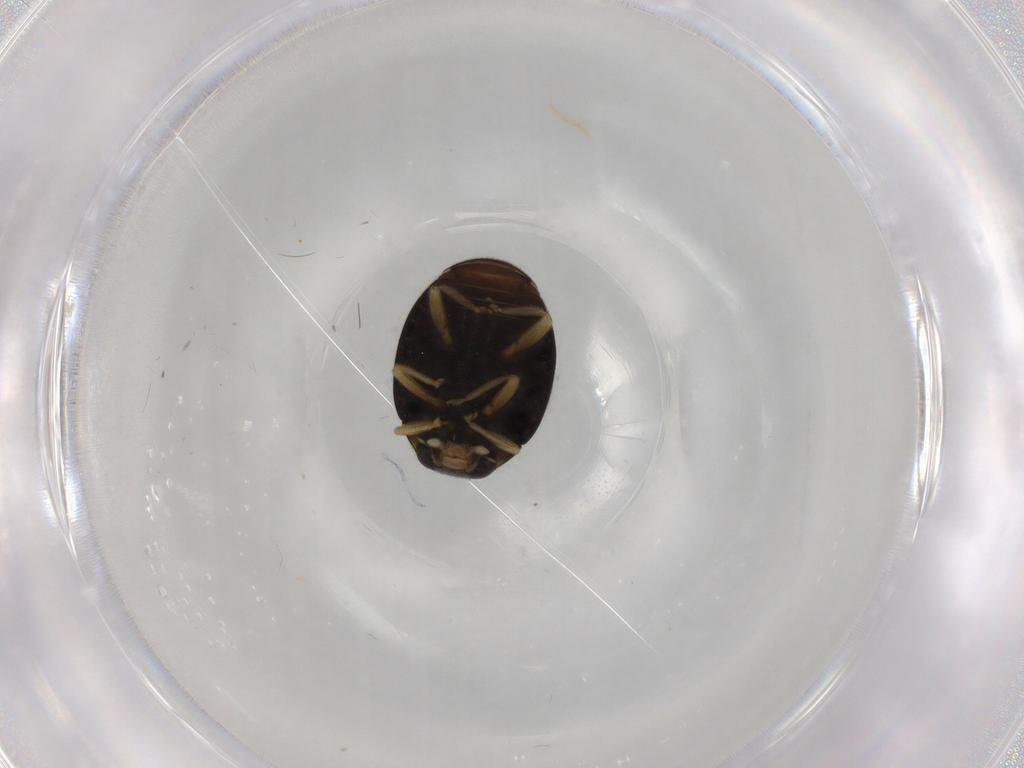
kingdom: Animalia
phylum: Arthropoda
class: Insecta
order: Coleoptera
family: Coccinellidae
